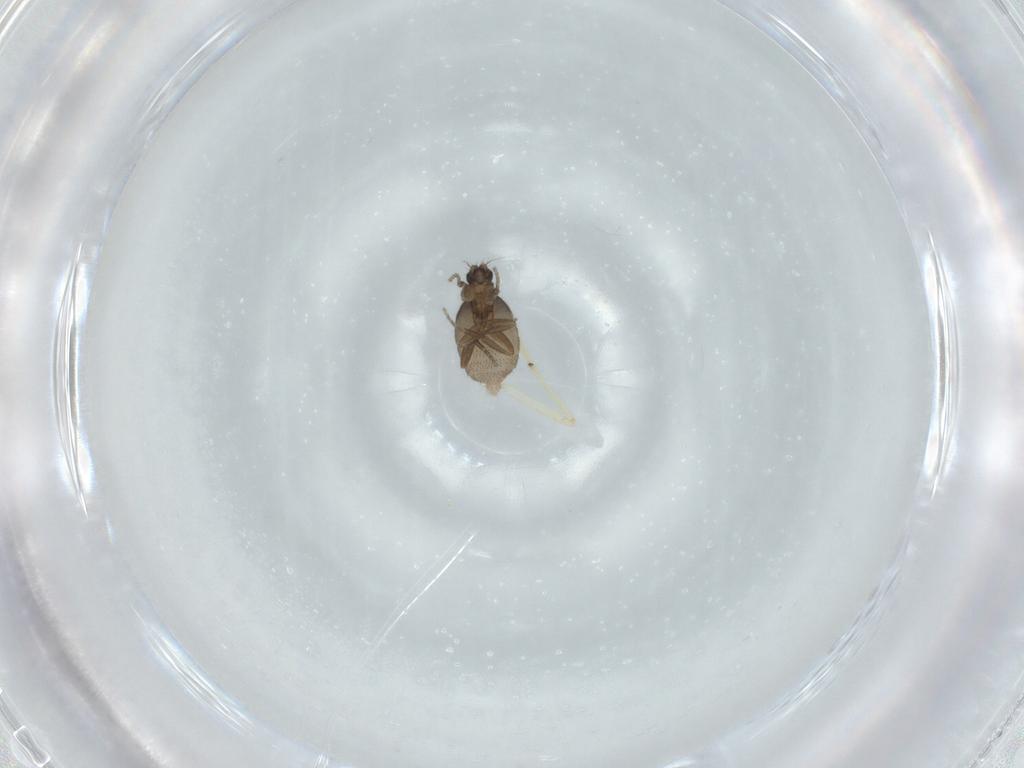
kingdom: Animalia
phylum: Arthropoda
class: Insecta
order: Diptera
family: Phoridae
